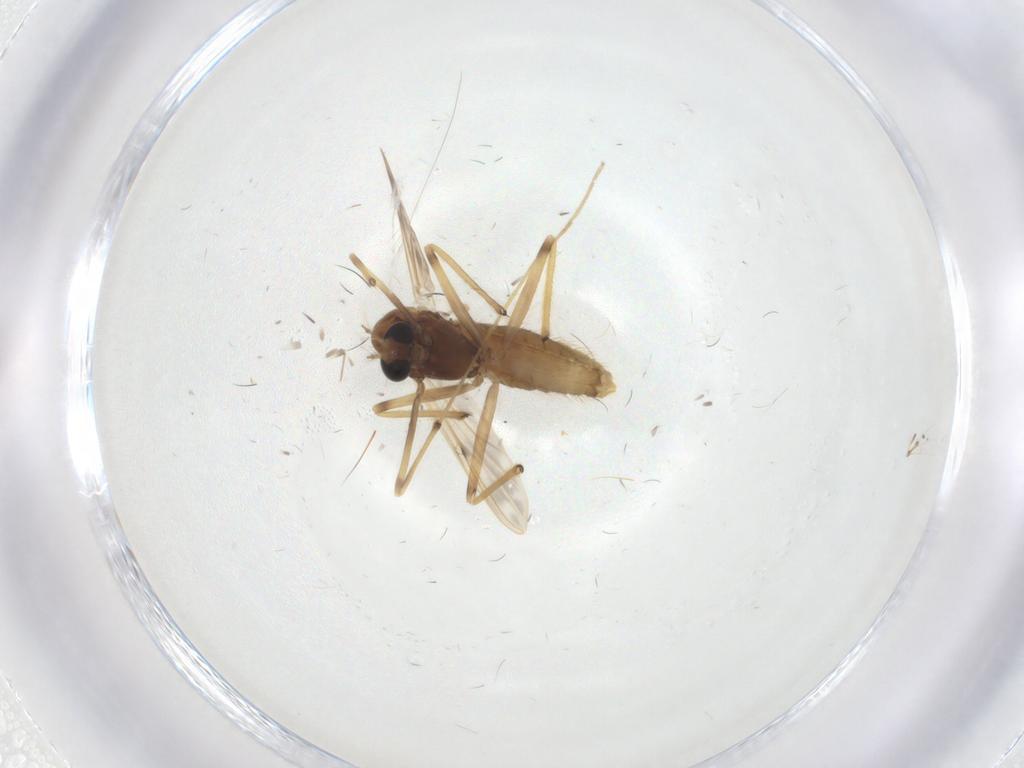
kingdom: Animalia
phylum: Arthropoda
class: Insecta
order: Diptera
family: Chironomidae
